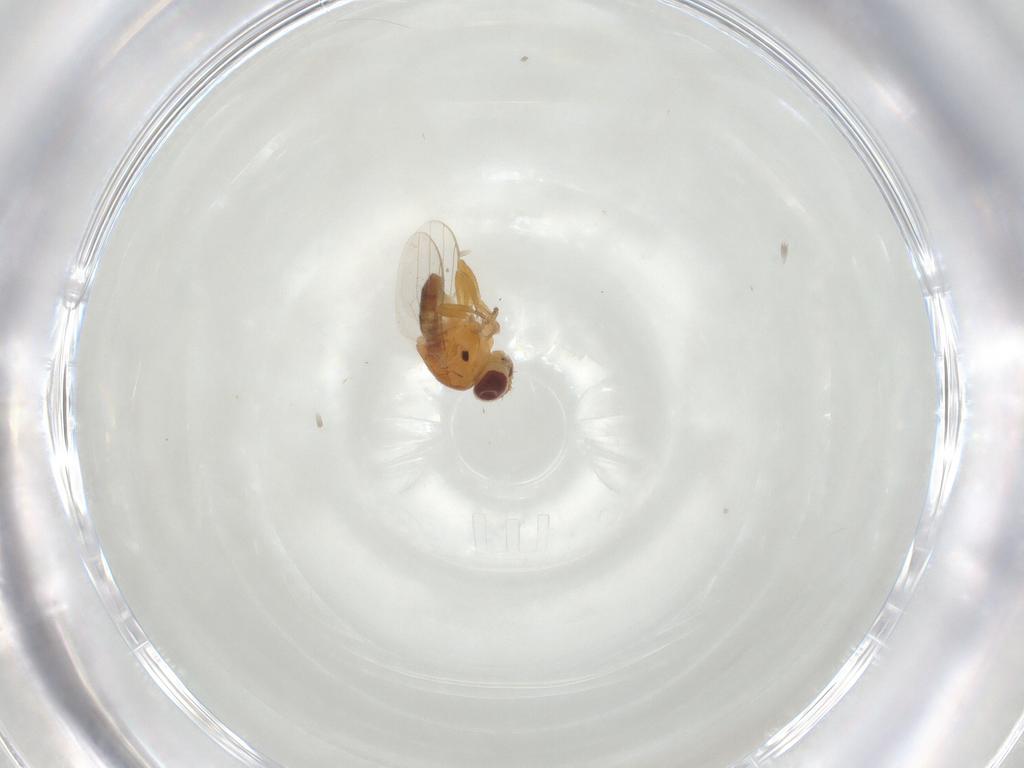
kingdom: Animalia
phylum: Arthropoda
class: Insecta
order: Diptera
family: Chloropidae
